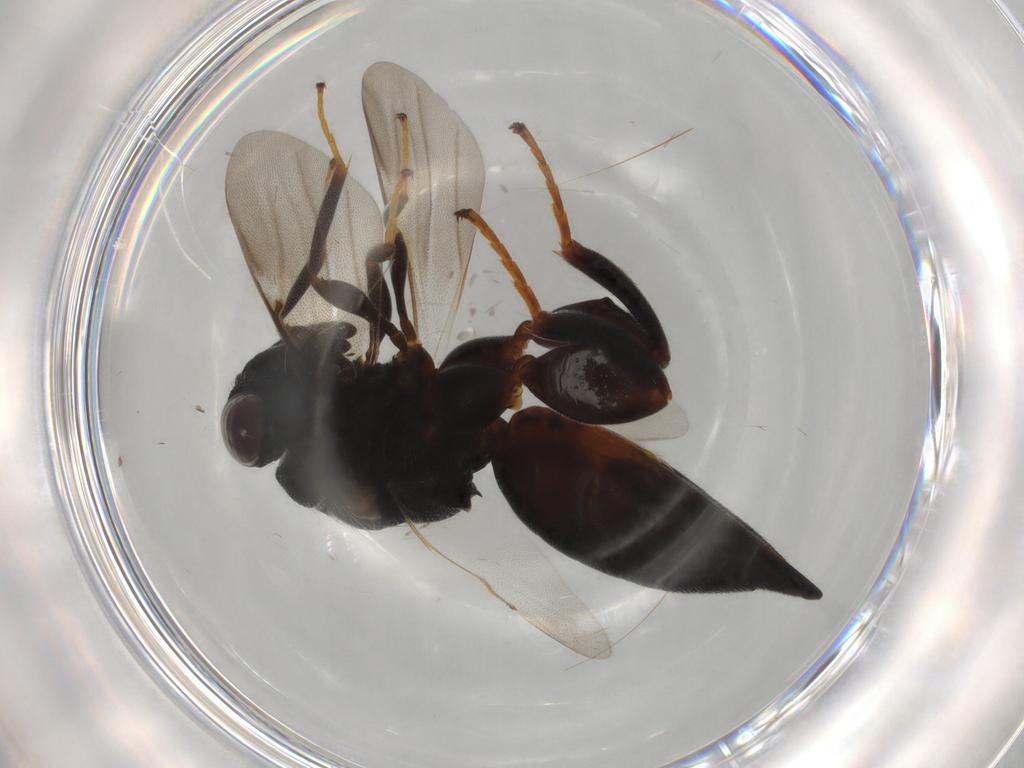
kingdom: Animalia
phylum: Arthropoda
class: Insecta
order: Hymenoptera
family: Chalcididae
